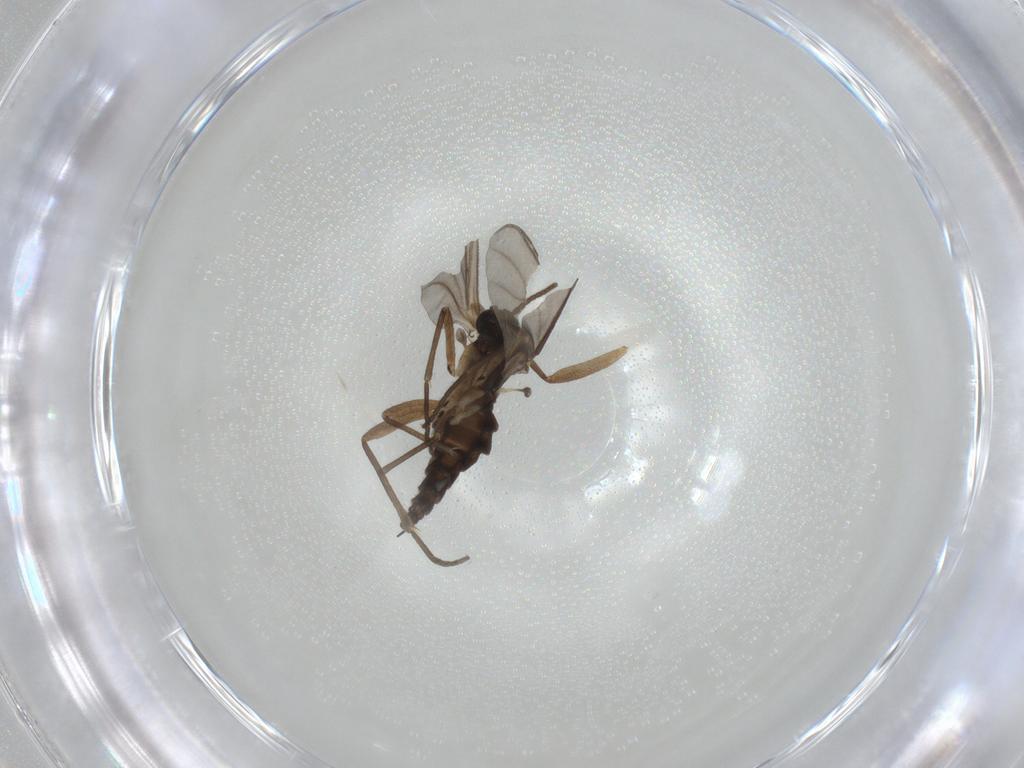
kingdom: Animalia
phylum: Arthropoda
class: Insecta
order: Diptera
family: Sciaridae
